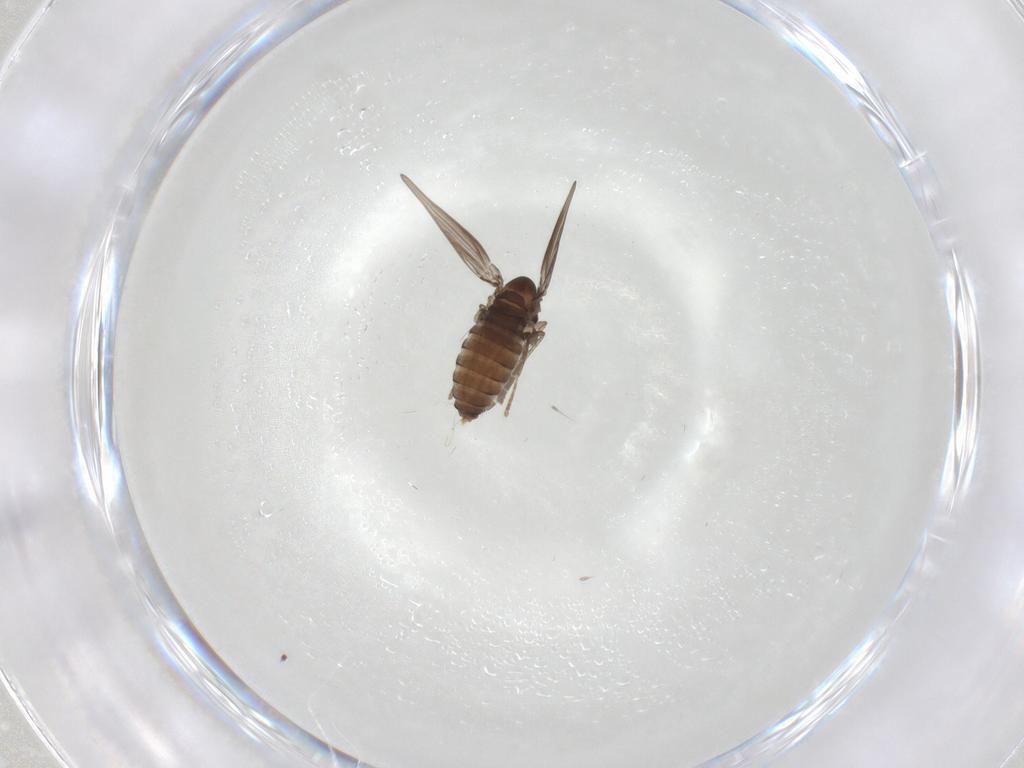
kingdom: Animalia
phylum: Arthropoda
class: Insecta
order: Diptera
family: Psychodidae
